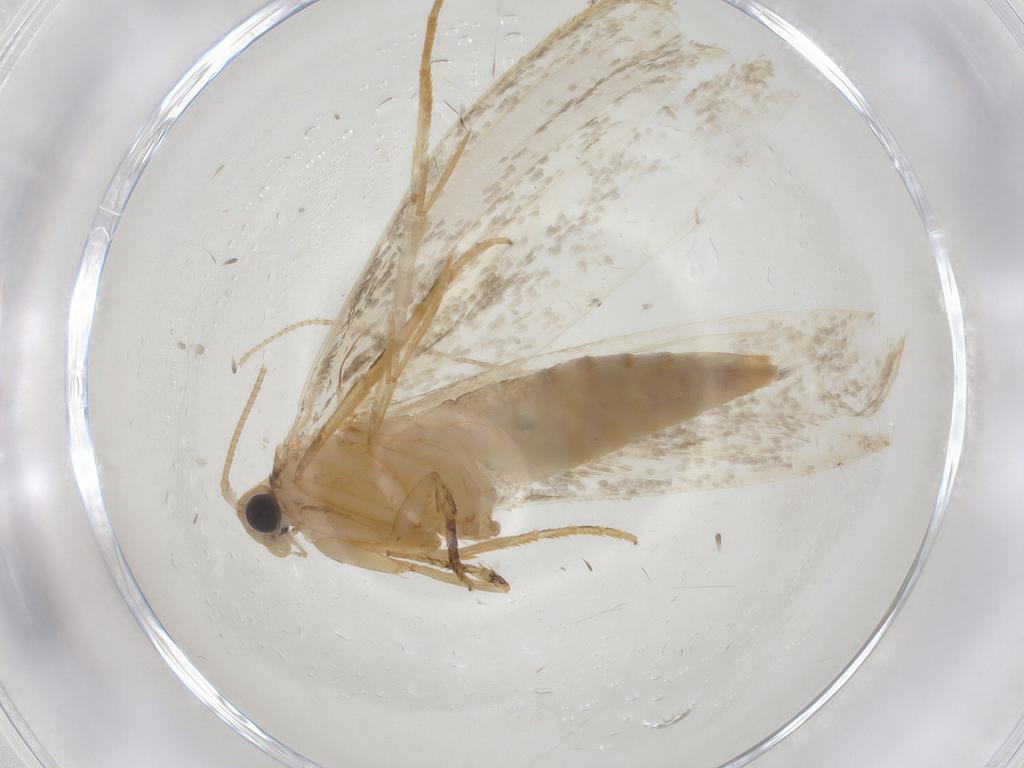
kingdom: Animalia
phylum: Arthropoda
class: Insecta
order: Lepidoptera
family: Tineidae
